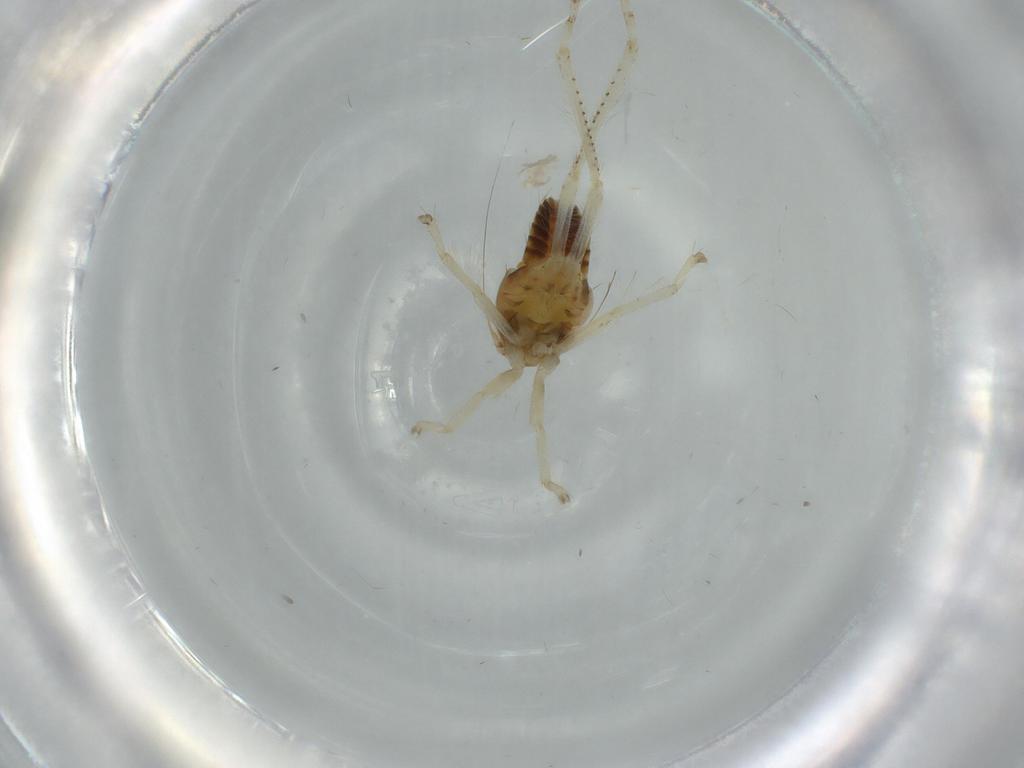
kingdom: Animalia
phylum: Arthropoda
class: Insecta
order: Hemiptera
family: Cicadellidae
